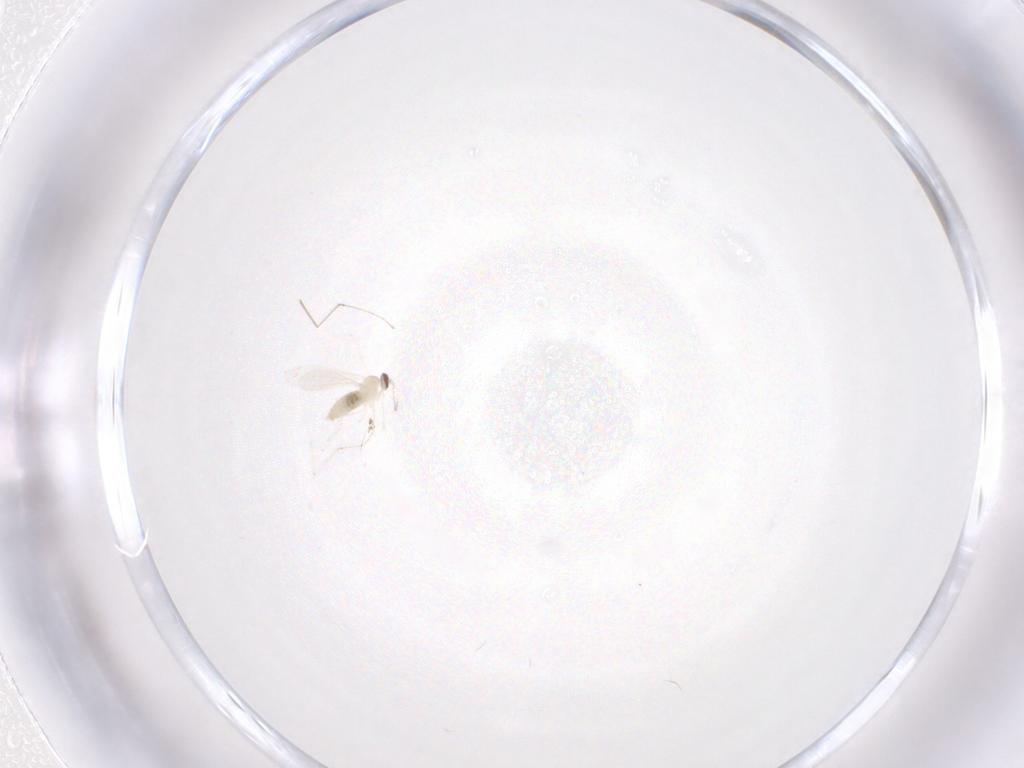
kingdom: Animalia
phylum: Arthropoda
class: Insecta
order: Diptera
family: Cecidomyiidae
